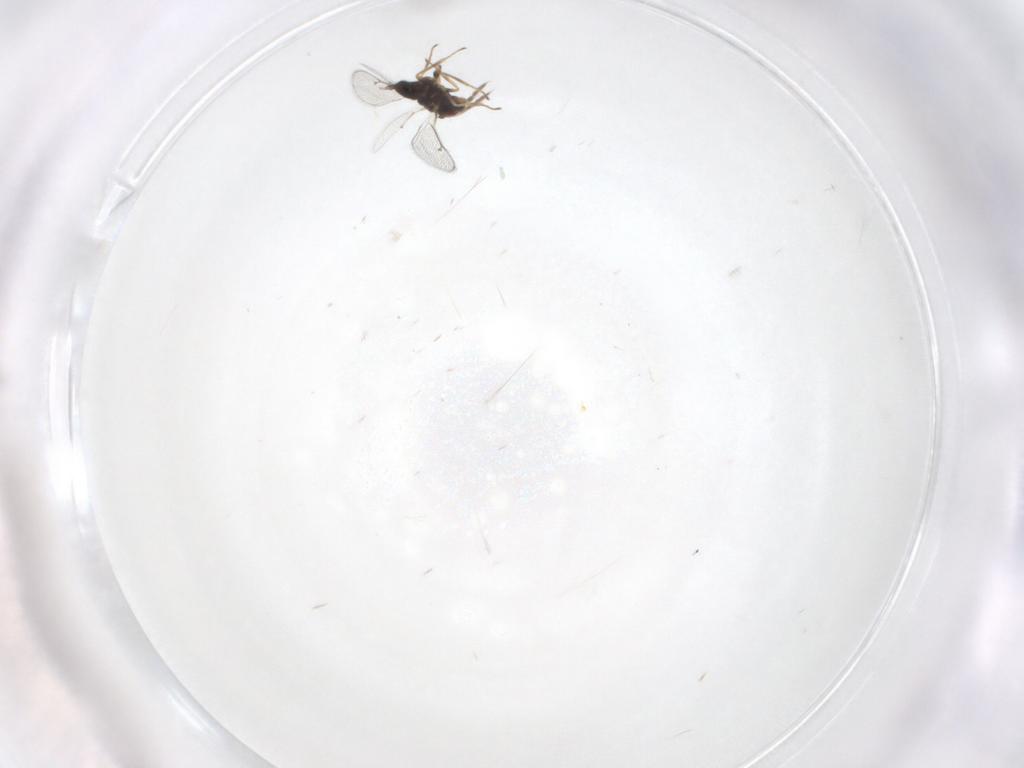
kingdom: Animalia
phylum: Arthropoda
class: Insecta
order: Hymenoptera
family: Eulophidae
